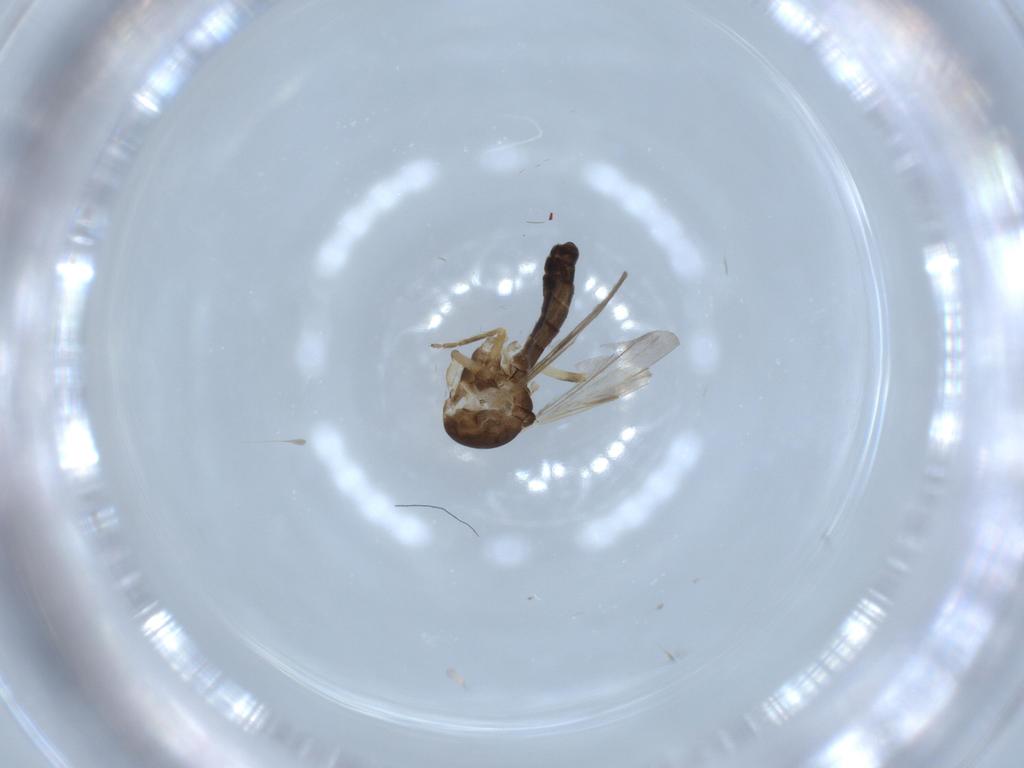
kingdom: Animalia
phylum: Arthropoda
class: Insecta
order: Diptera
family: Ceratopogonidae
